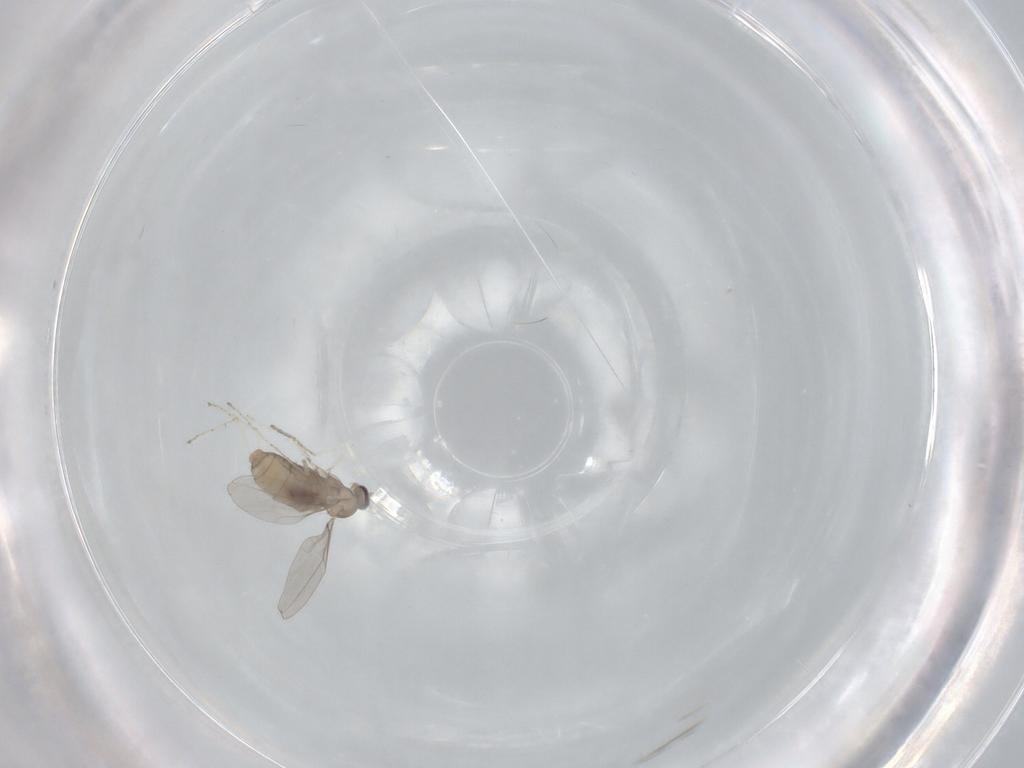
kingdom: Animalia
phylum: Arthropoda
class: Insecta
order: Diptera
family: Cecidomyiidae
